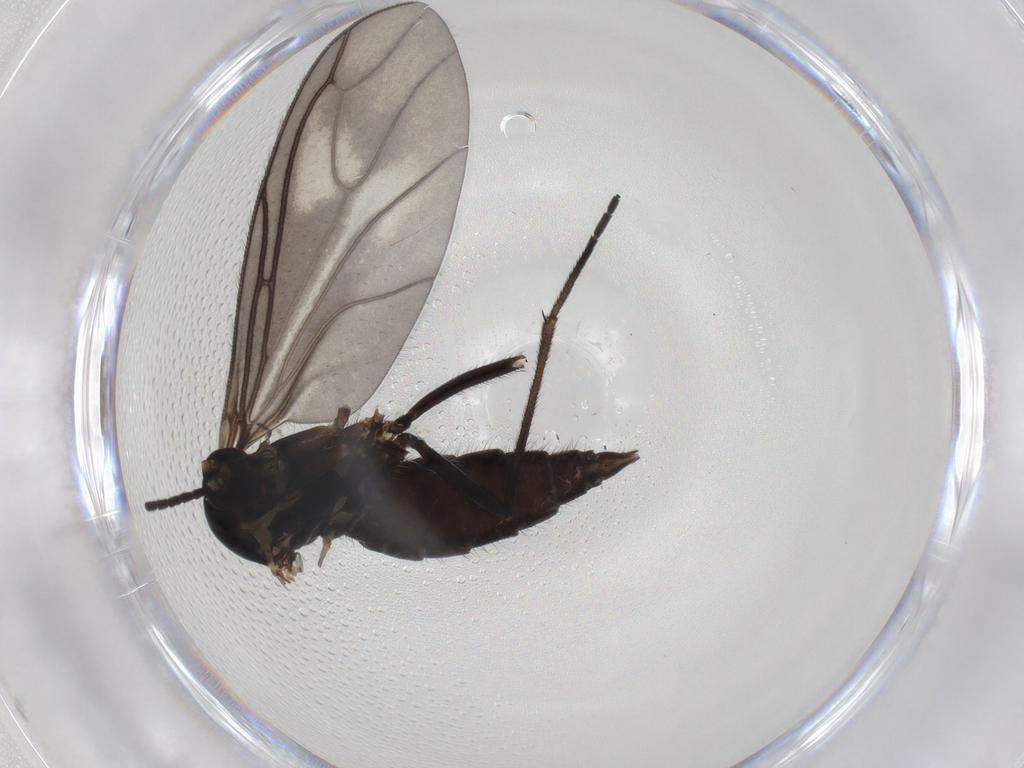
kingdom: Animalia
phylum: Arthropoda
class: Insecta
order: Diptera
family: Sciaridae
